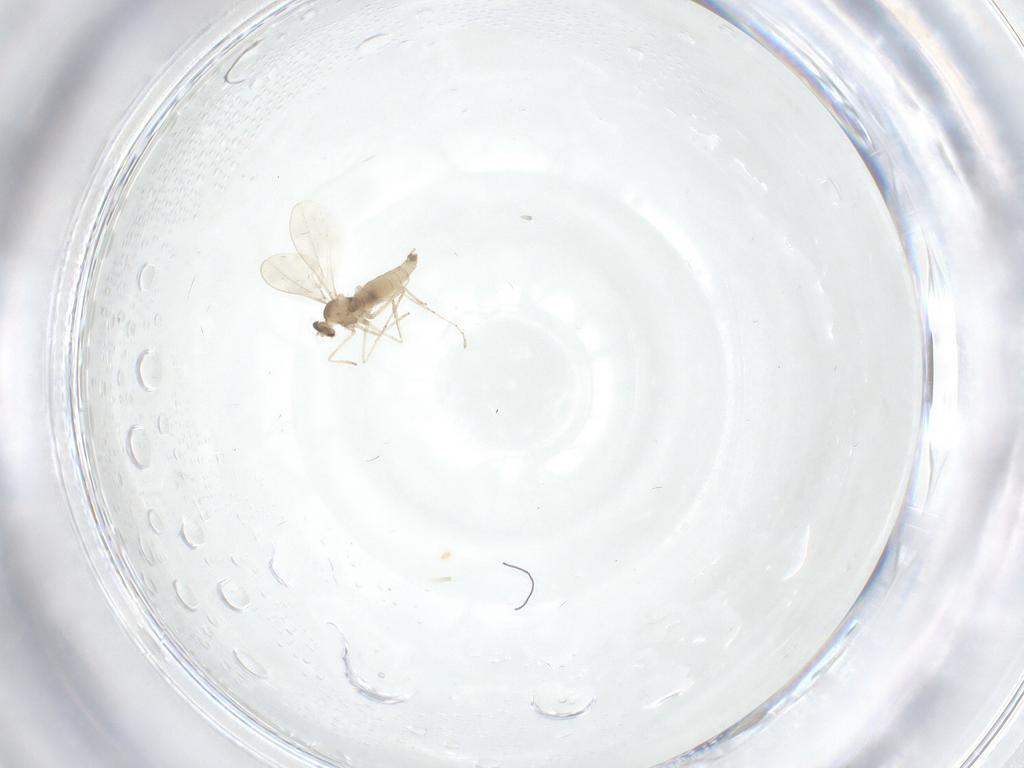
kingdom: Animalia
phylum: Arthropoda
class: Insecta
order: Diptera
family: Cecidomyiidae
